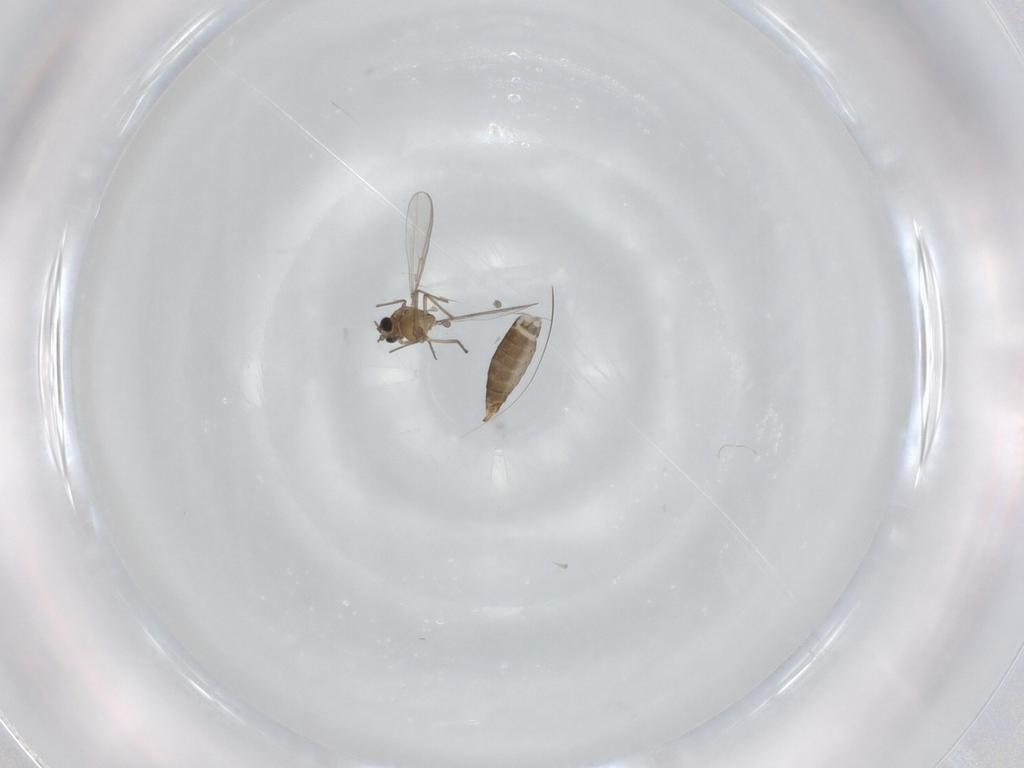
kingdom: Animalia
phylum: Arthropoda
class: Insecta
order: Diptera
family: Chironomidae
